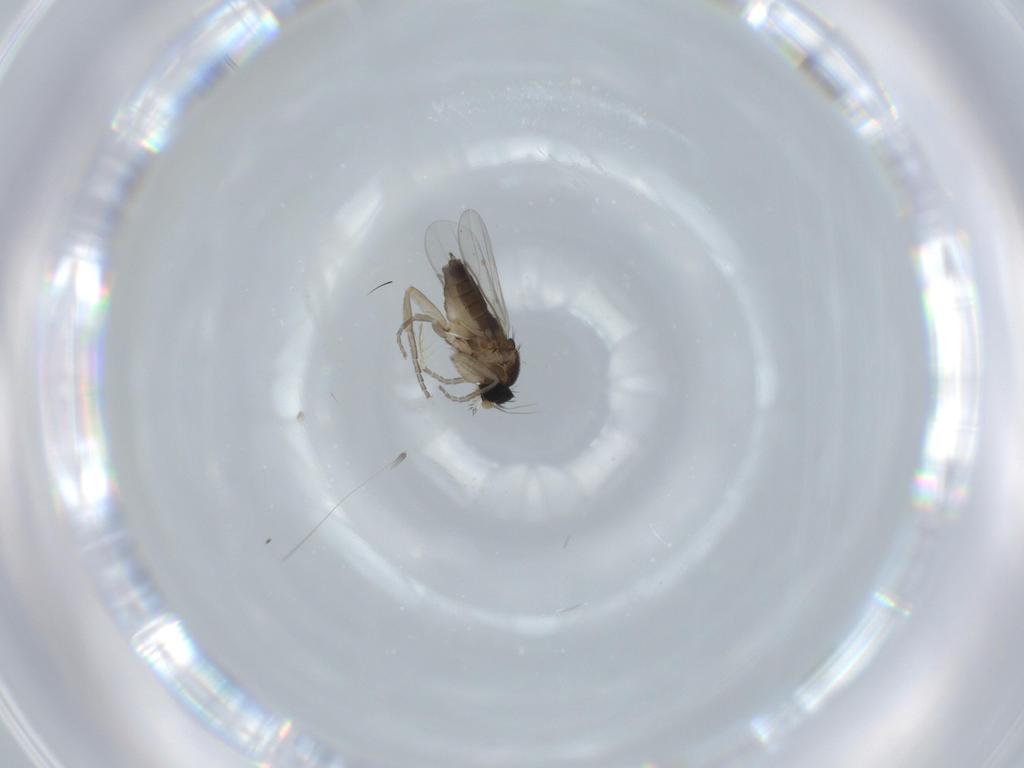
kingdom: Animalia
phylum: Arthropoda
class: Insecta
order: Diptera
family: Phoridae
